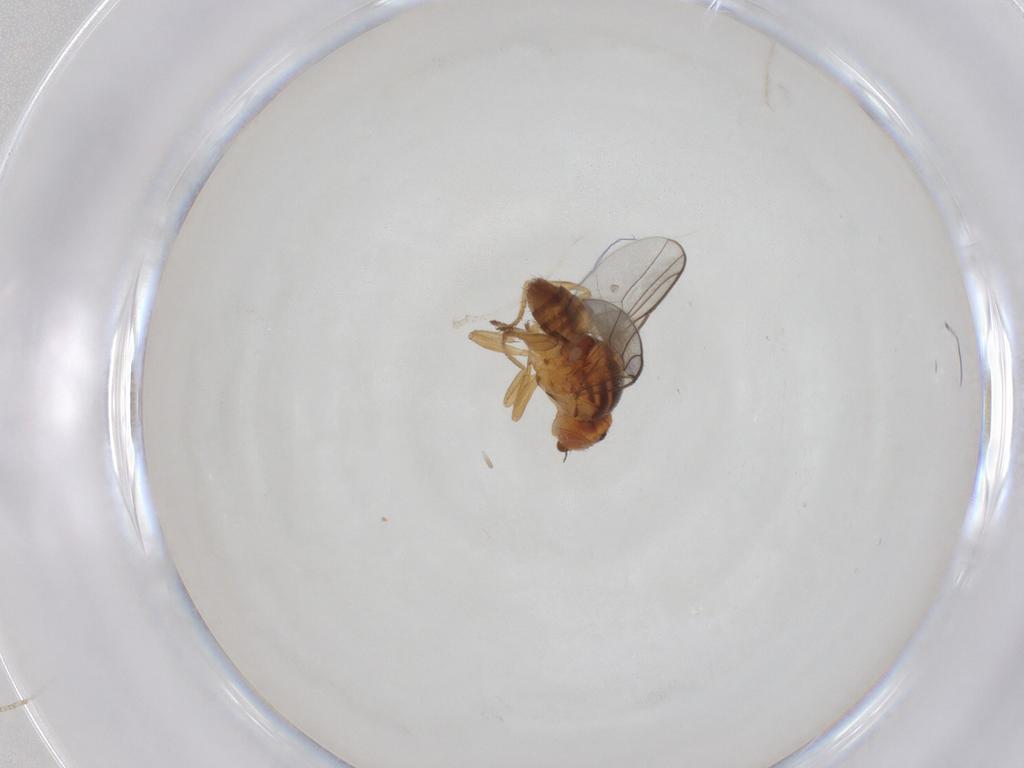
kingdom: Animalia
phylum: Arthropoda
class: Insecta
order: Diptera
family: Chloropidae
